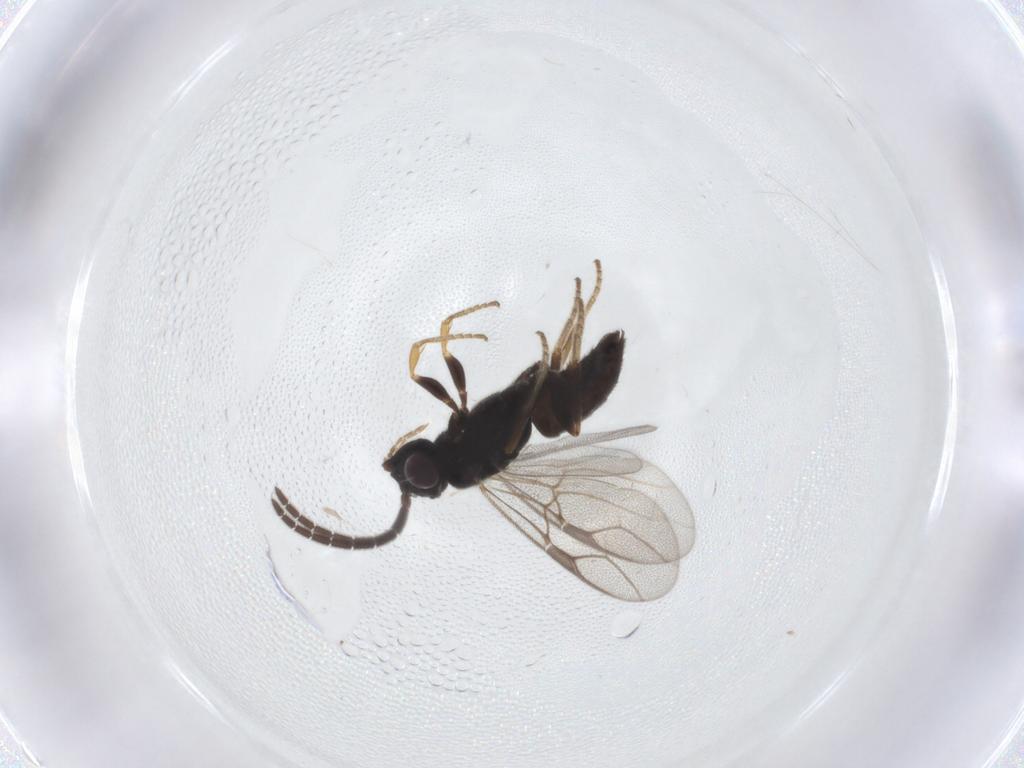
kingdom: Animalia
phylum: Arthropoda
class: Insecta
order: Hymenoptera
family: Dryinidae
